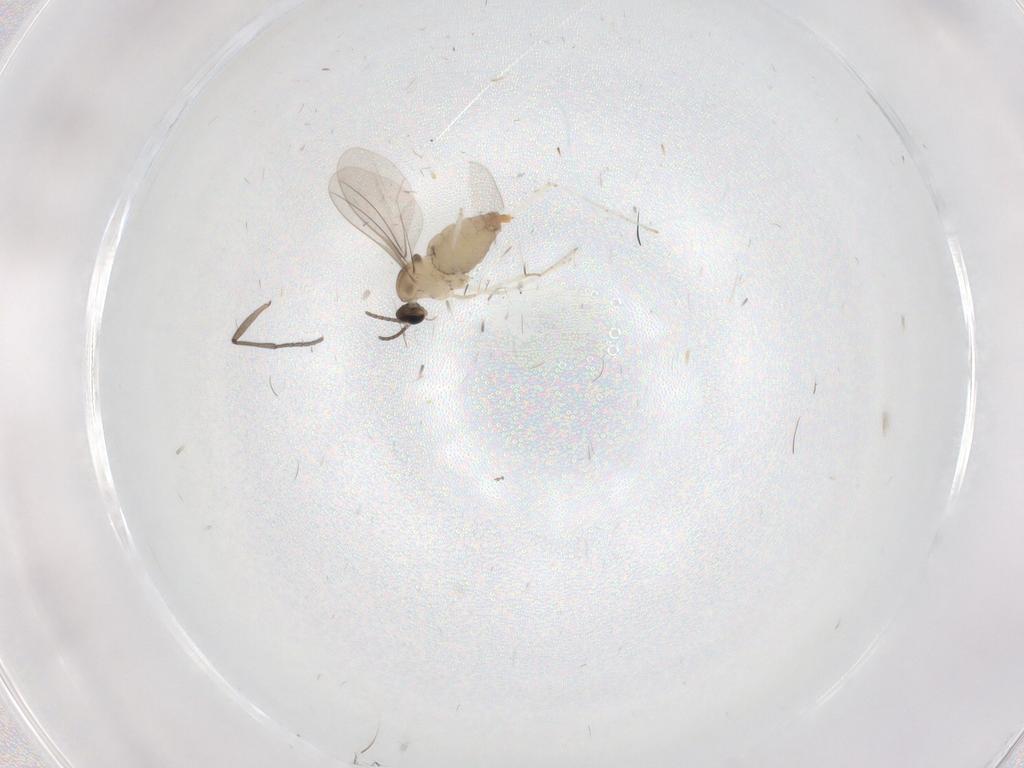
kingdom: Animalia
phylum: Arthropoda
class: Insecta
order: Diptera
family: Cecidomyiidae
